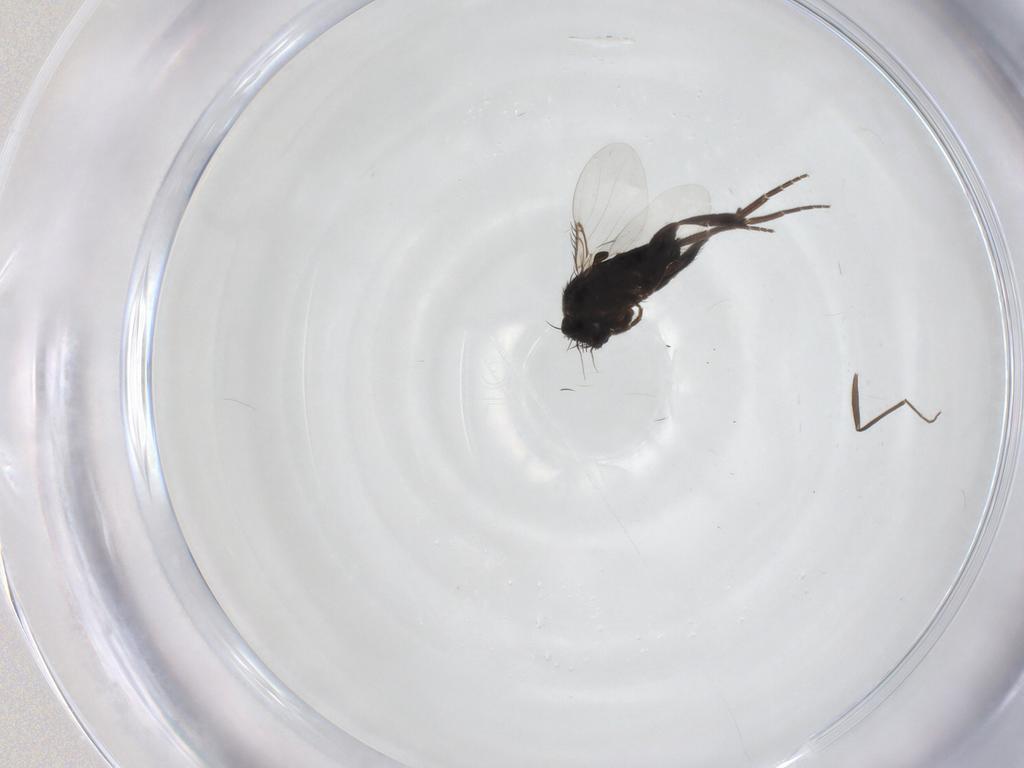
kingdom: Animalia
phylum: Arthropoda
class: Insecta
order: Diptera
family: Phoridae
